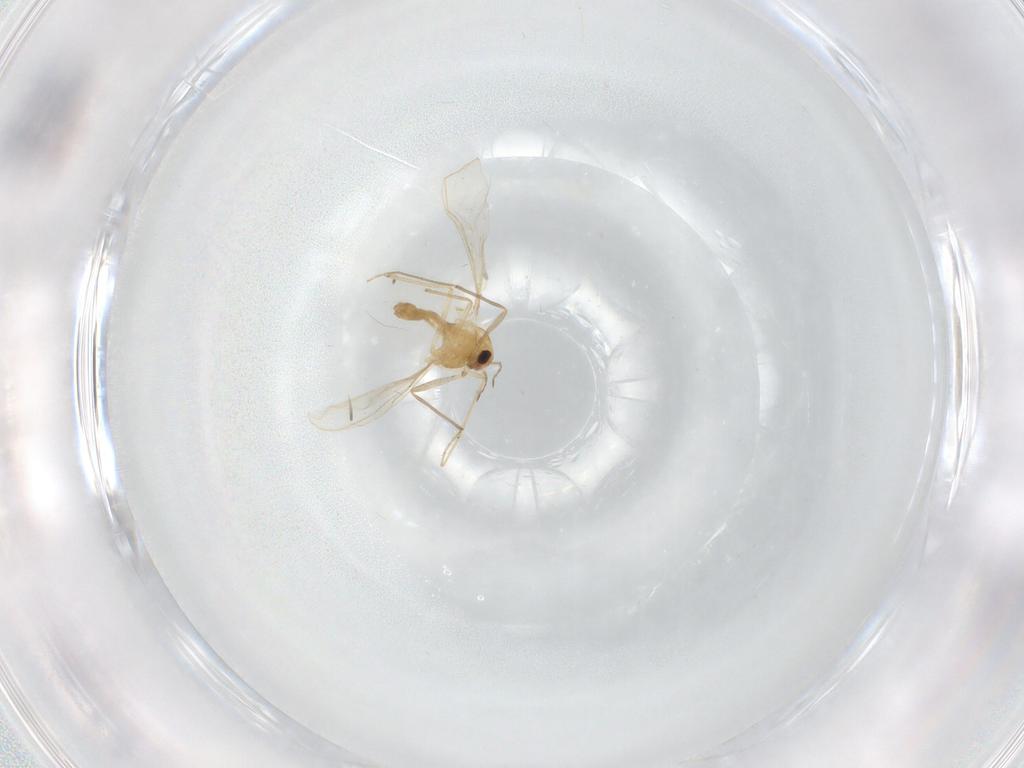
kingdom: Animalia
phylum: Arthropoda
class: Insecta
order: Diptera
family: Chironomidae
